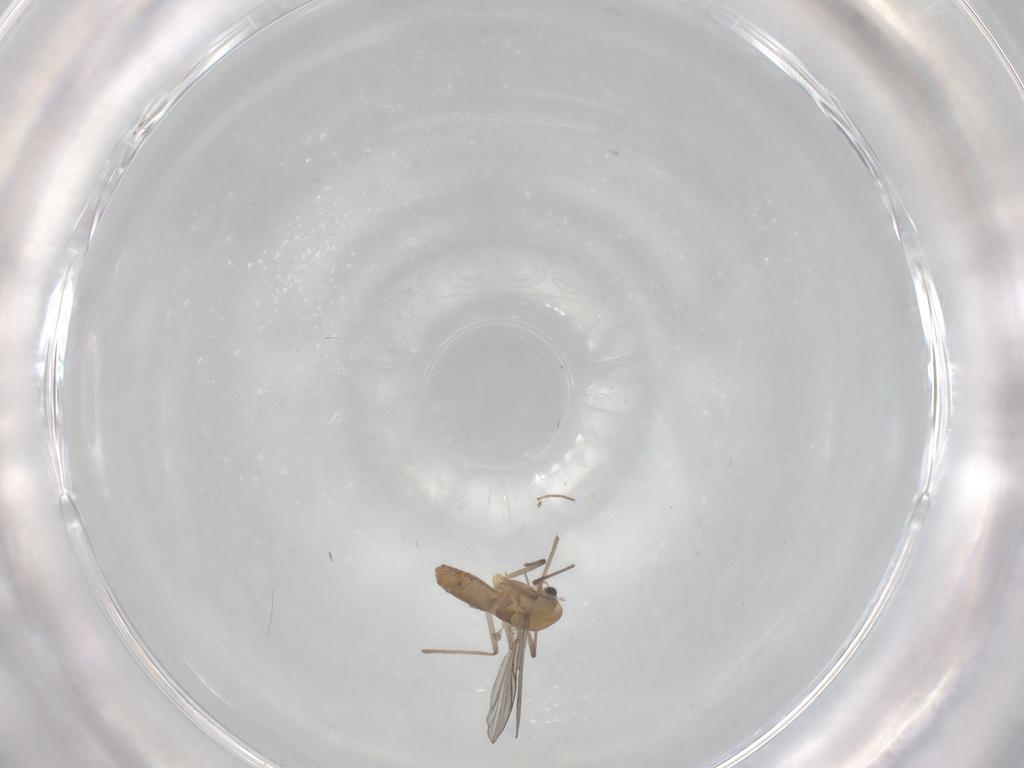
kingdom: Animalia
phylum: Arthropoda
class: Insecta
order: Diptera
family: Chironomidae
